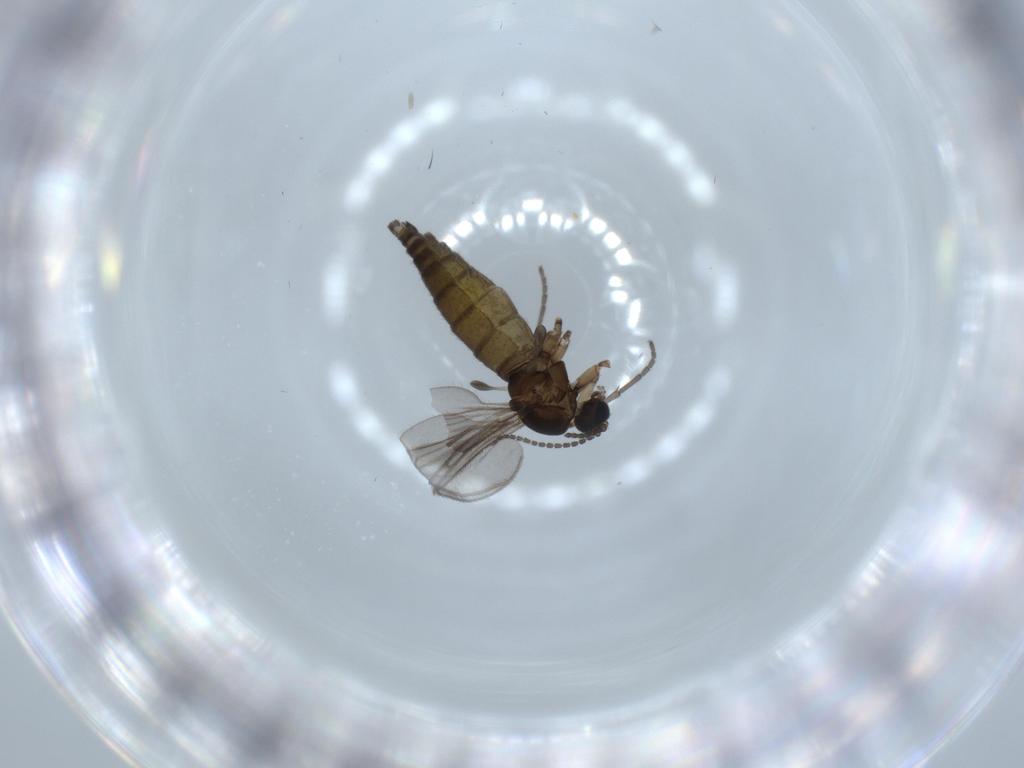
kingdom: Animalia
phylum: Arthropoda
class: Insecta
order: Diptera
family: Sciaridae
